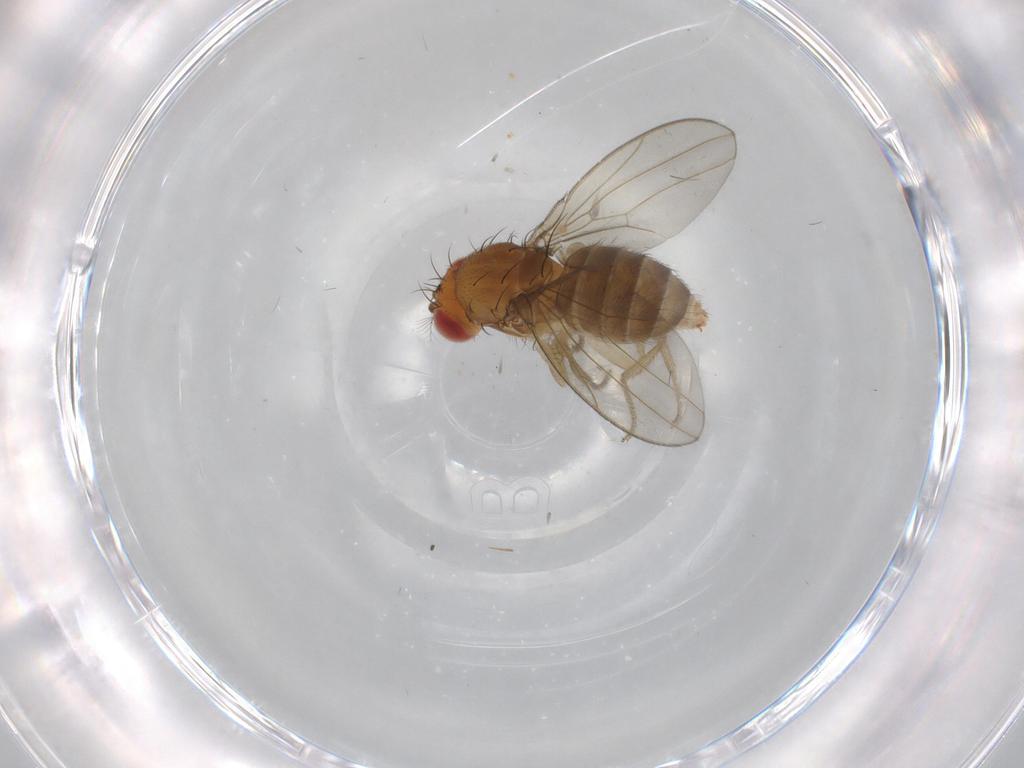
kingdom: Animalia
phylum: Arthropoda
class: Insecta
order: Diptera
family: Drosophilidae
